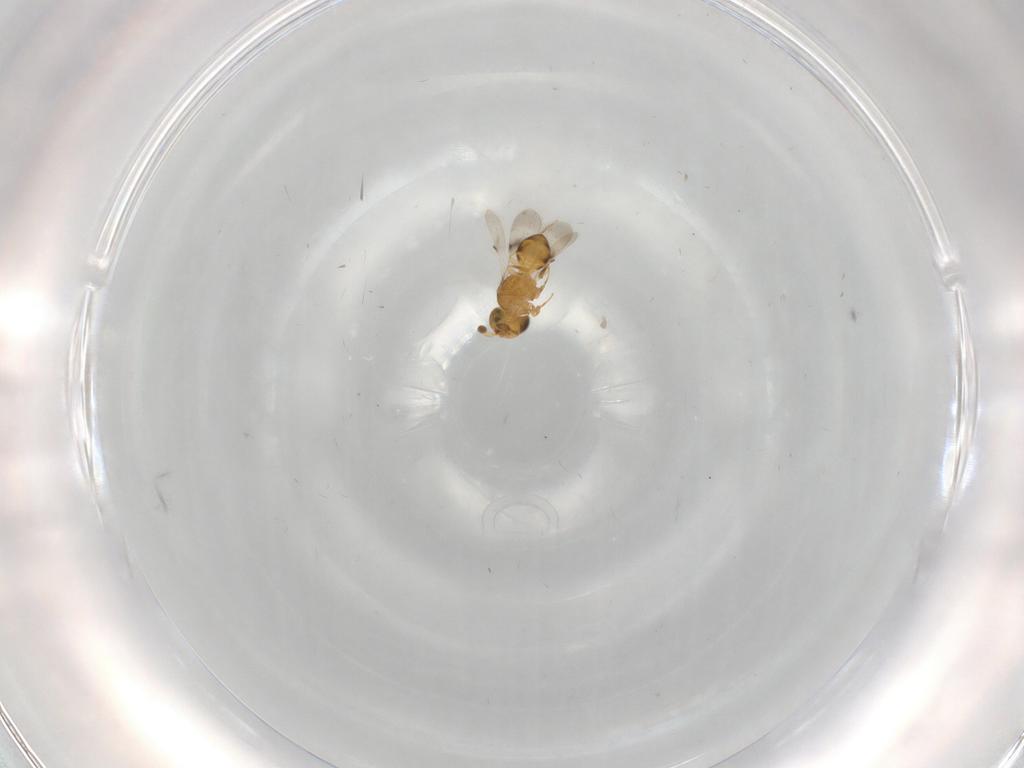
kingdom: Animalia
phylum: Arthropoda
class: Insecta
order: Hymenoptera
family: Scelionidae
